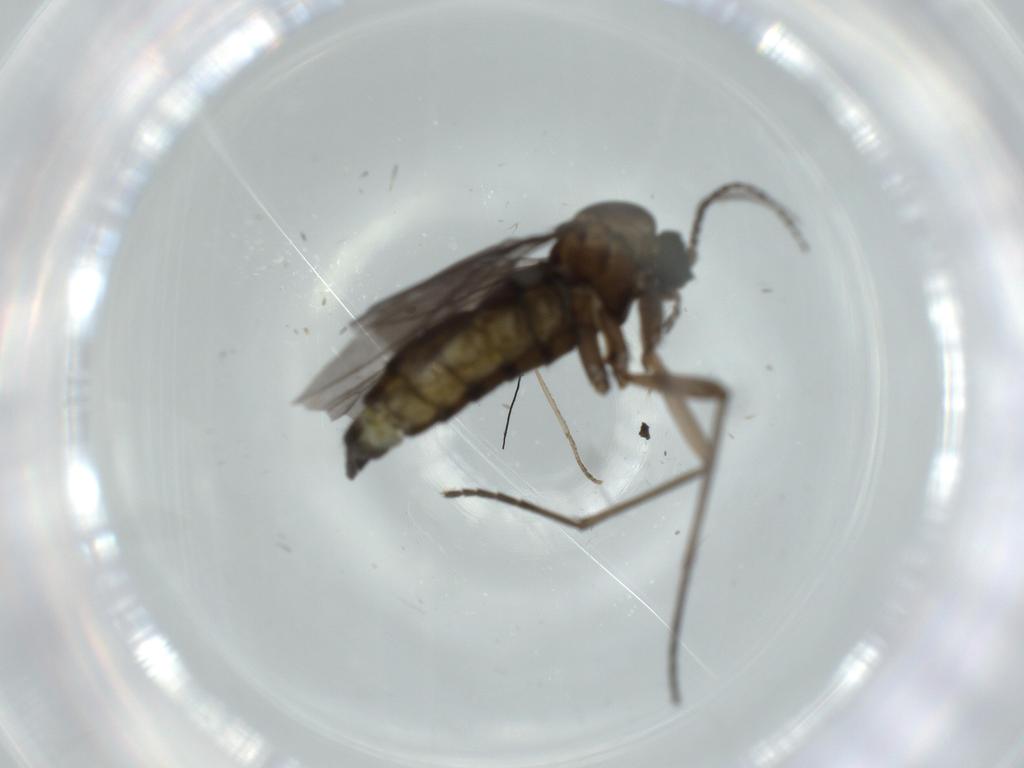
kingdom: Animalia
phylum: Arthropoda
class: Insecta
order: Diptera
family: Sciaridae
